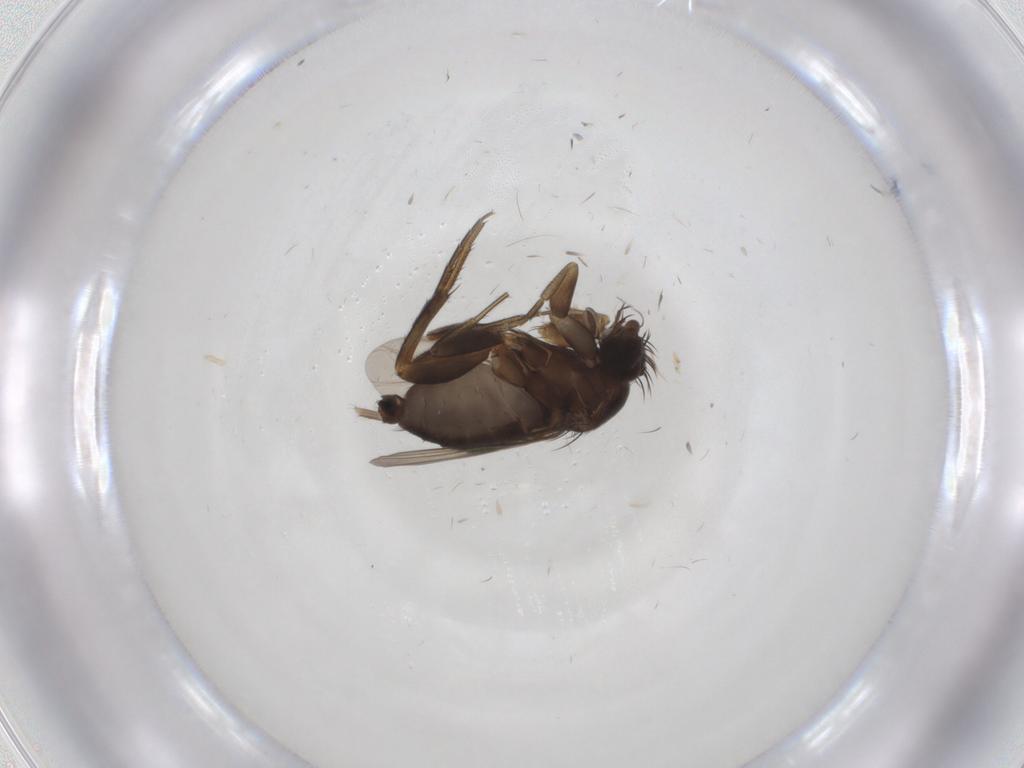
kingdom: Animalia
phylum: Arthropoda
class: Insecta
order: Diptera
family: Phoridae
